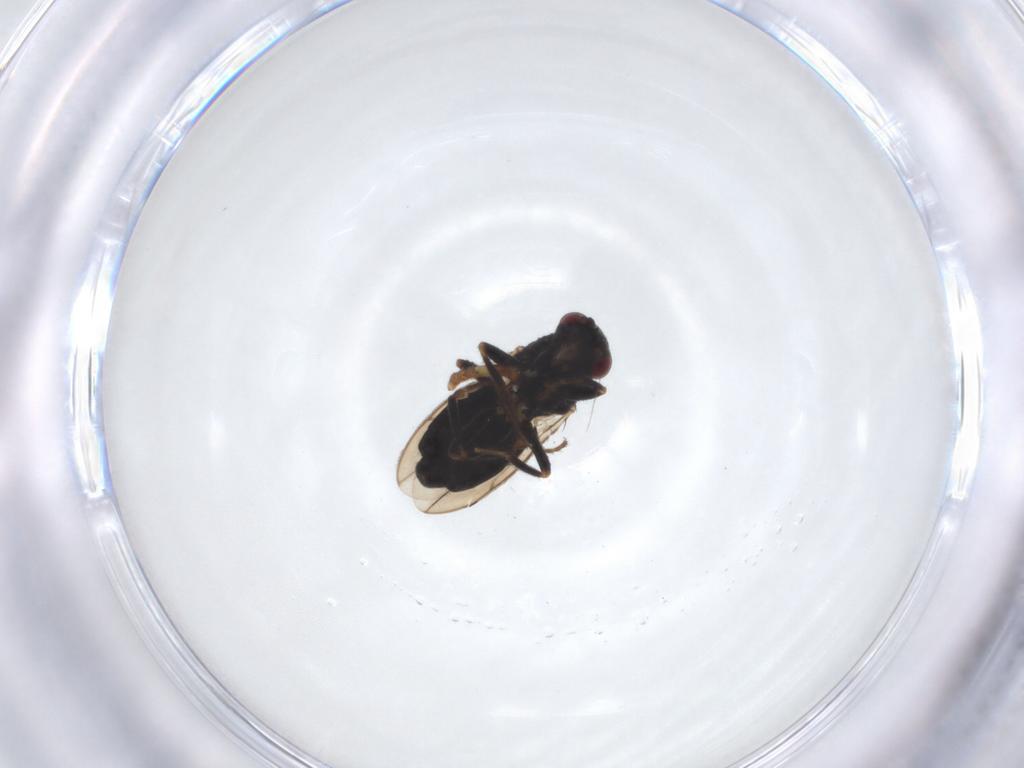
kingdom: Animalia
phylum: Arthropoda
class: Insecta
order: Diptera
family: Sphaeroceridae
